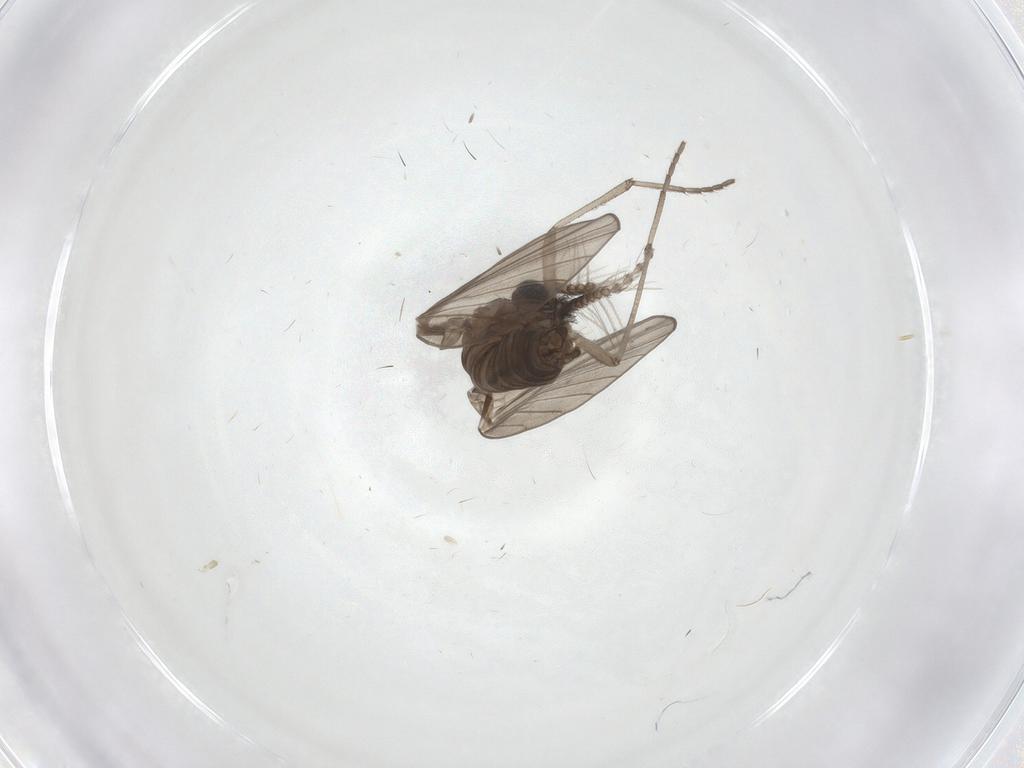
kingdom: Animalia
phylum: Arthropoda
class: Insecta
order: Diptera
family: Psychodidae
